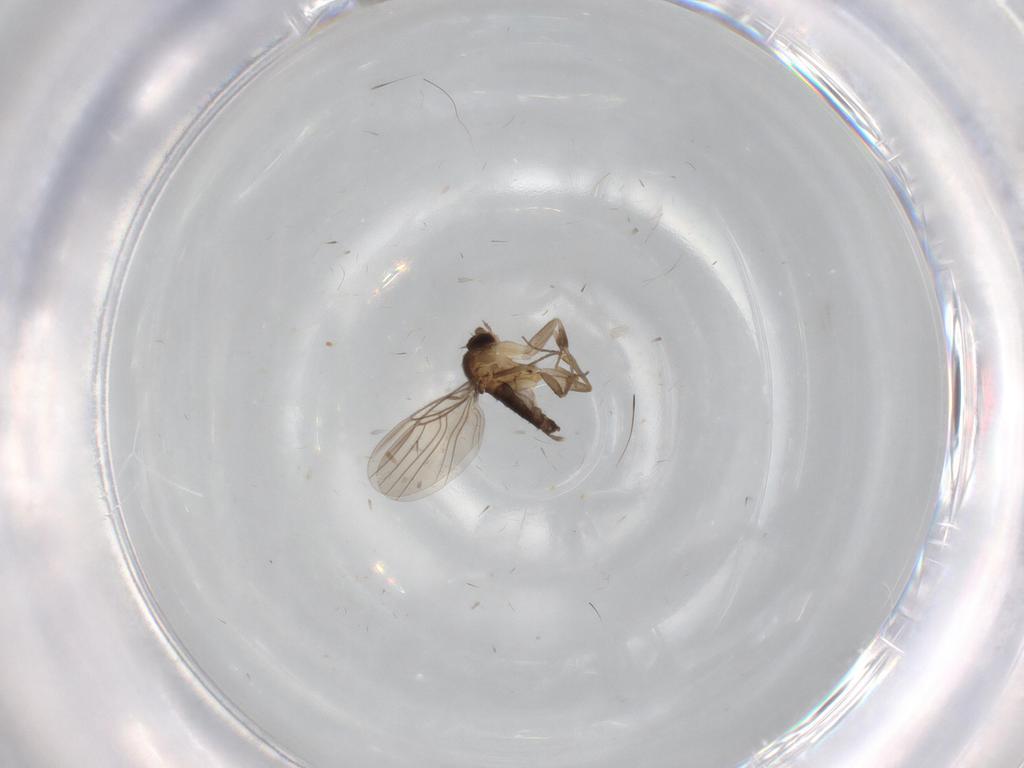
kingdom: Animalia
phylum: Arthropoda
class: Insecta
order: Diptera
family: Phoridae
